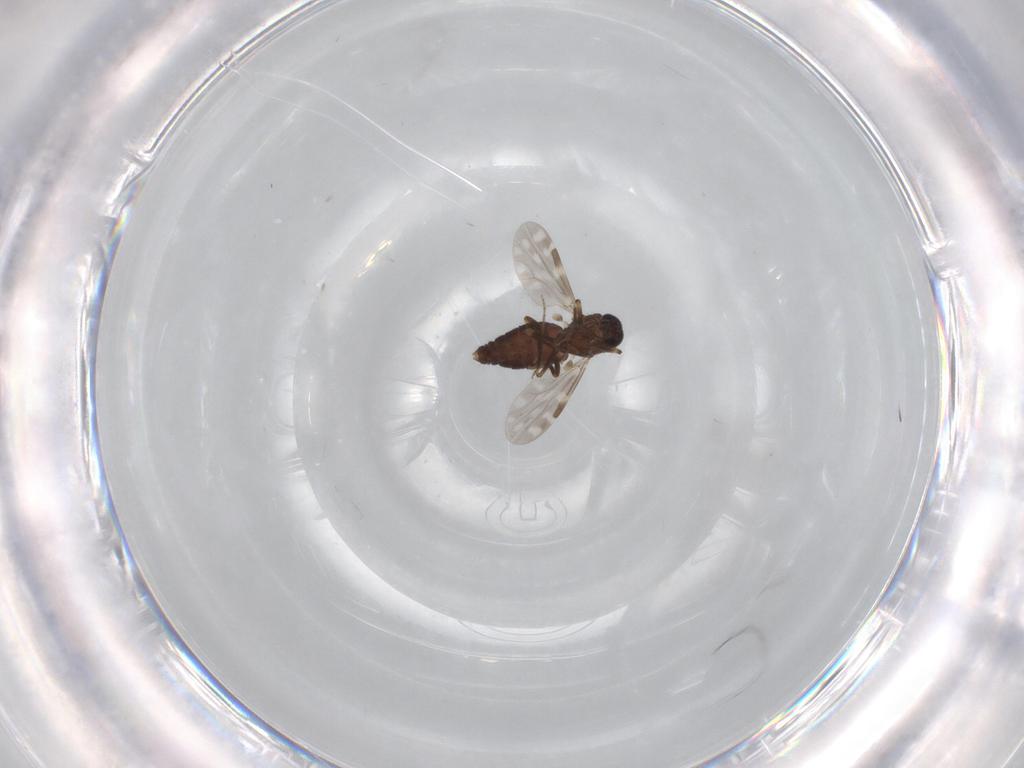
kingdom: Animalia
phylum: Arthropoda
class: Insecta
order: Diptera
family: Ceratopogonidae
